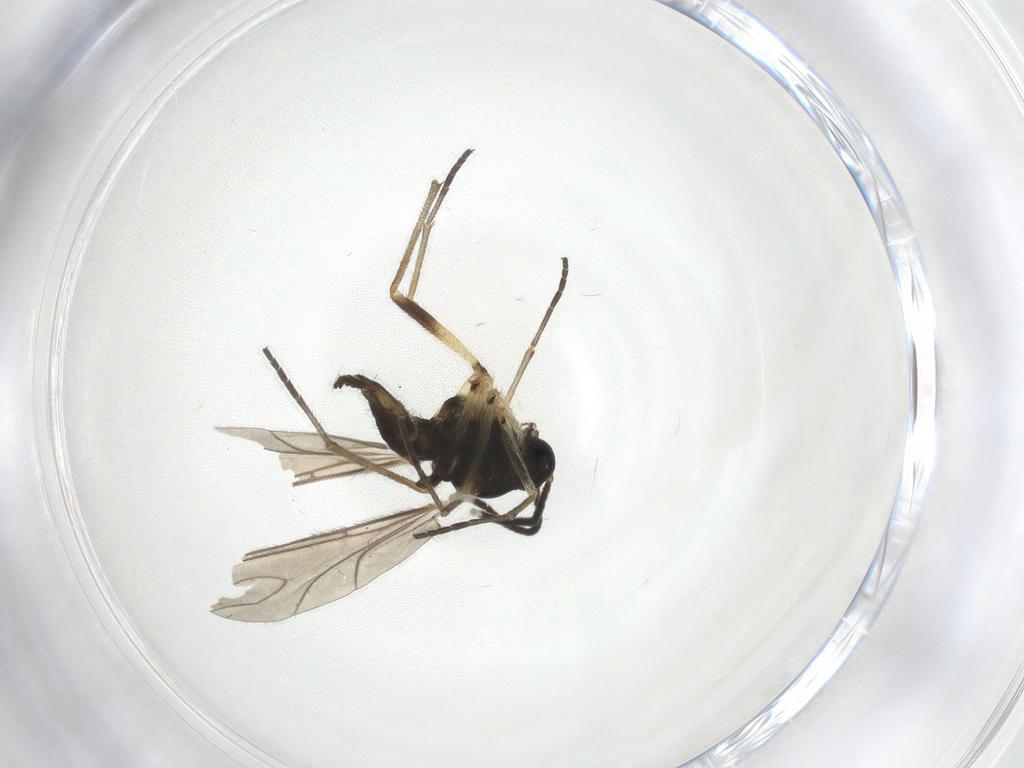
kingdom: Animalia
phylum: Arthropoda
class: Insecta
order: Diptera
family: Sciaridae
